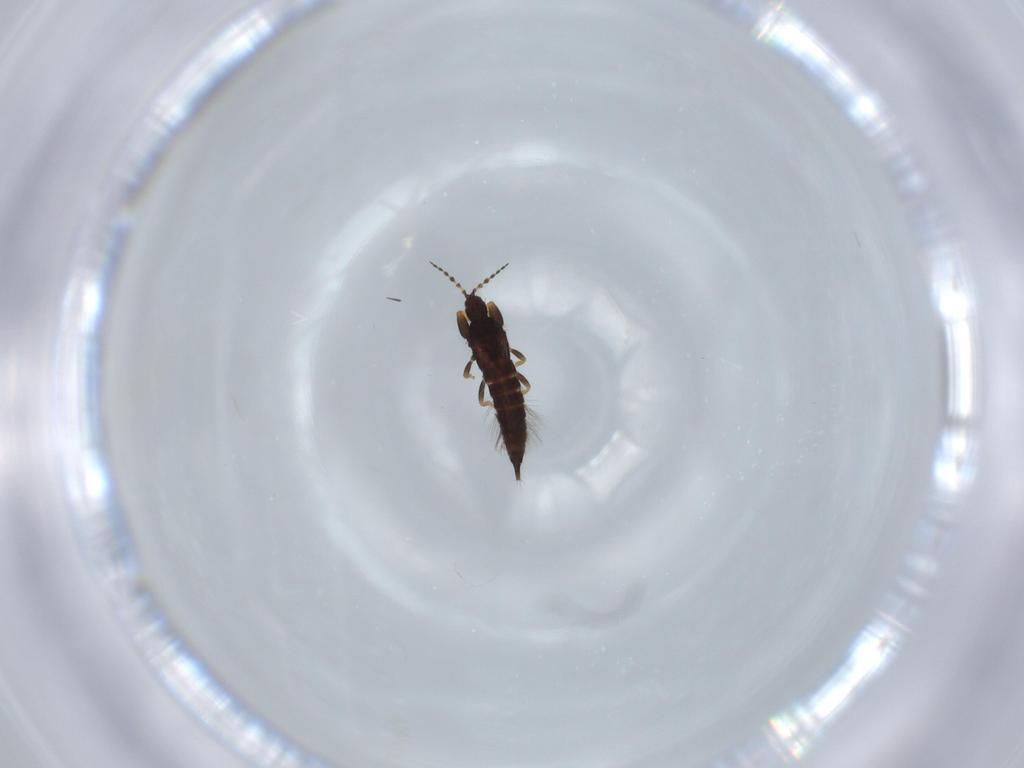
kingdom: Animalia
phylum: Arthropoda
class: Insecta
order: Thysanoptera
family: Phlaeothripidae
